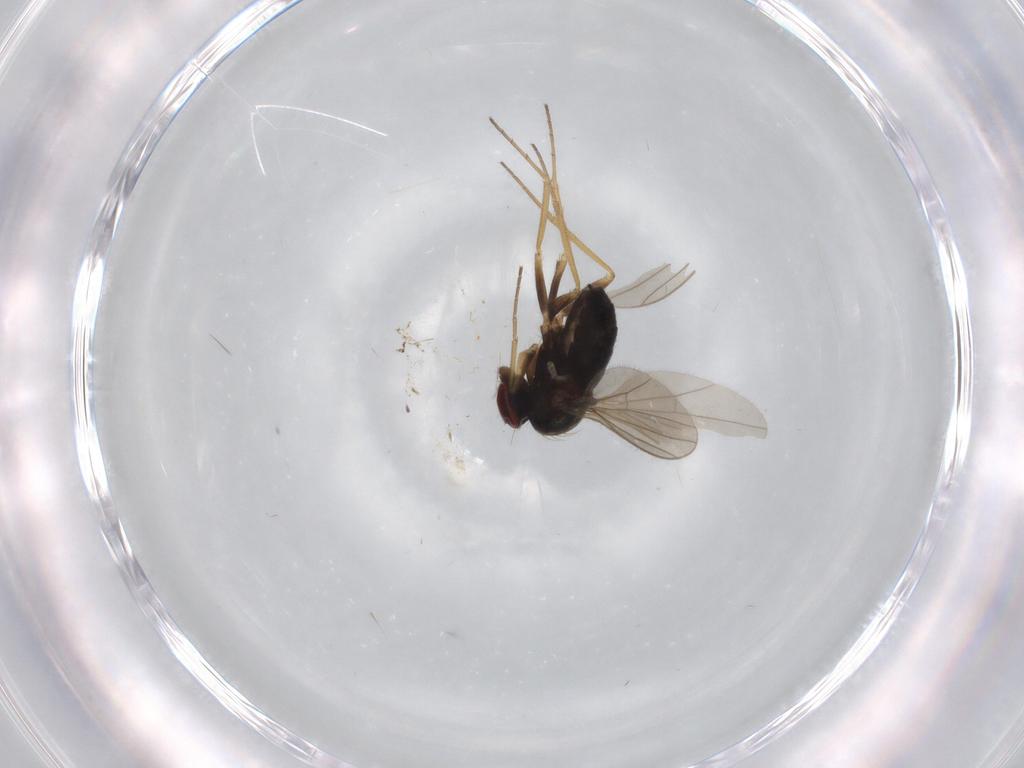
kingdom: Animalia
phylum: Arthropoda
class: Insecta
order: Diptera
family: Dolichopodidae
